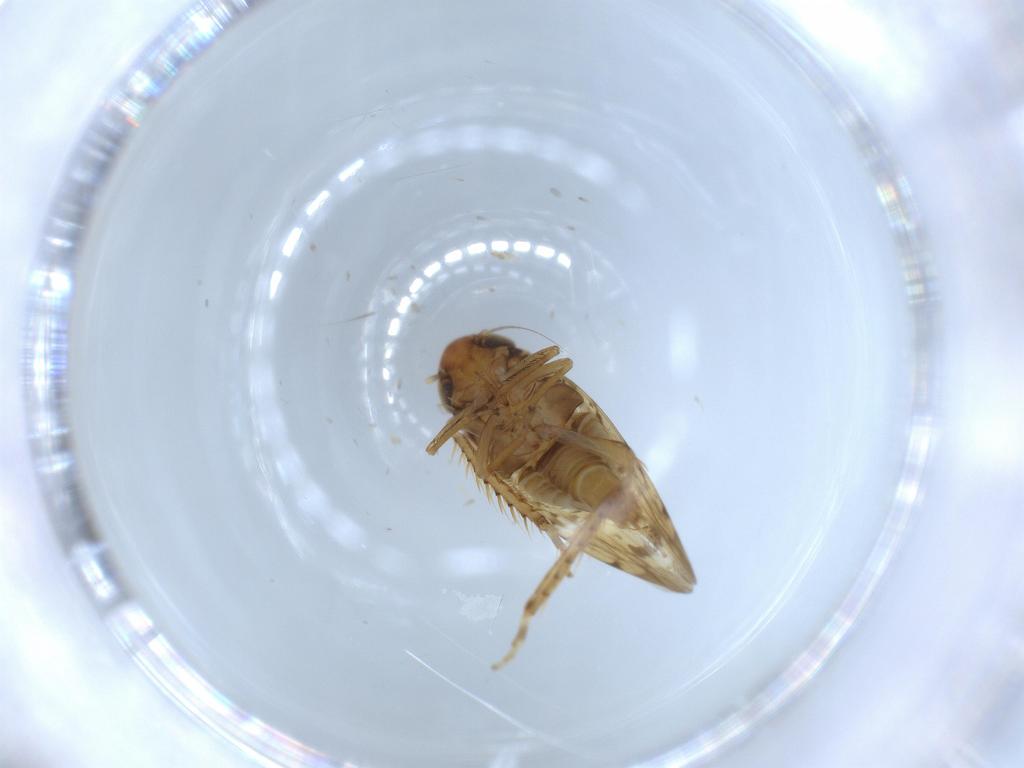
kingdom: Animalia
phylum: Arthropoda
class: Insecta
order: Hemiptera
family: Cicadellidae
